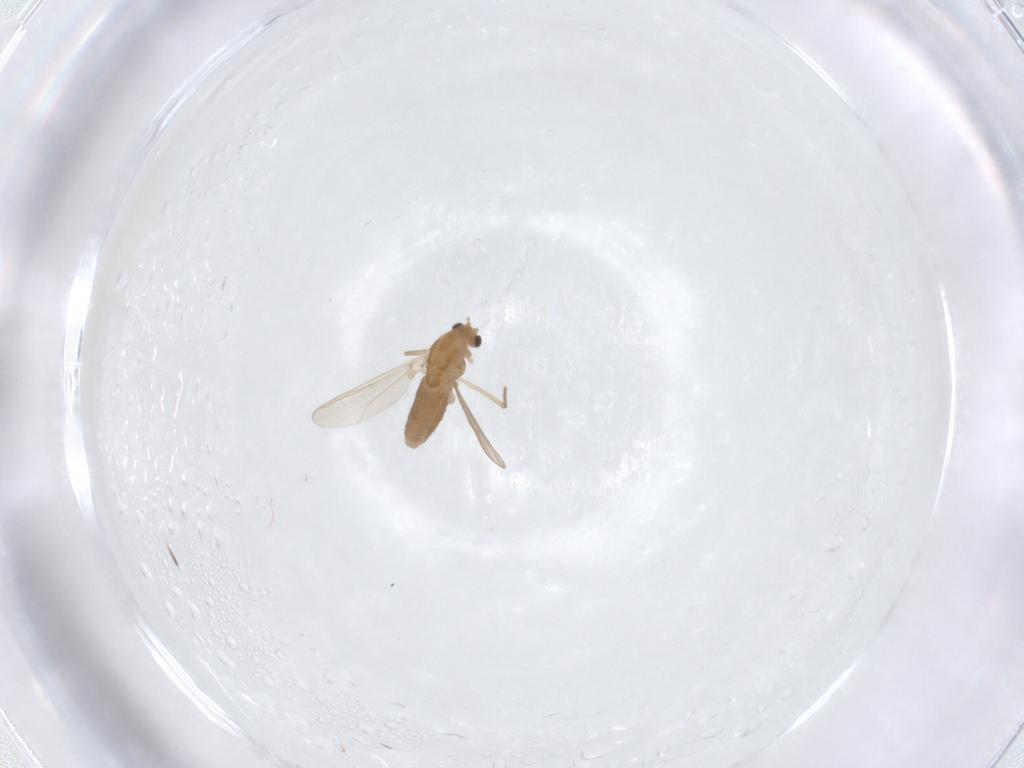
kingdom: Animalia
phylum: Arthropoda
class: Insecta
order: Diptera
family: Chironomidae
